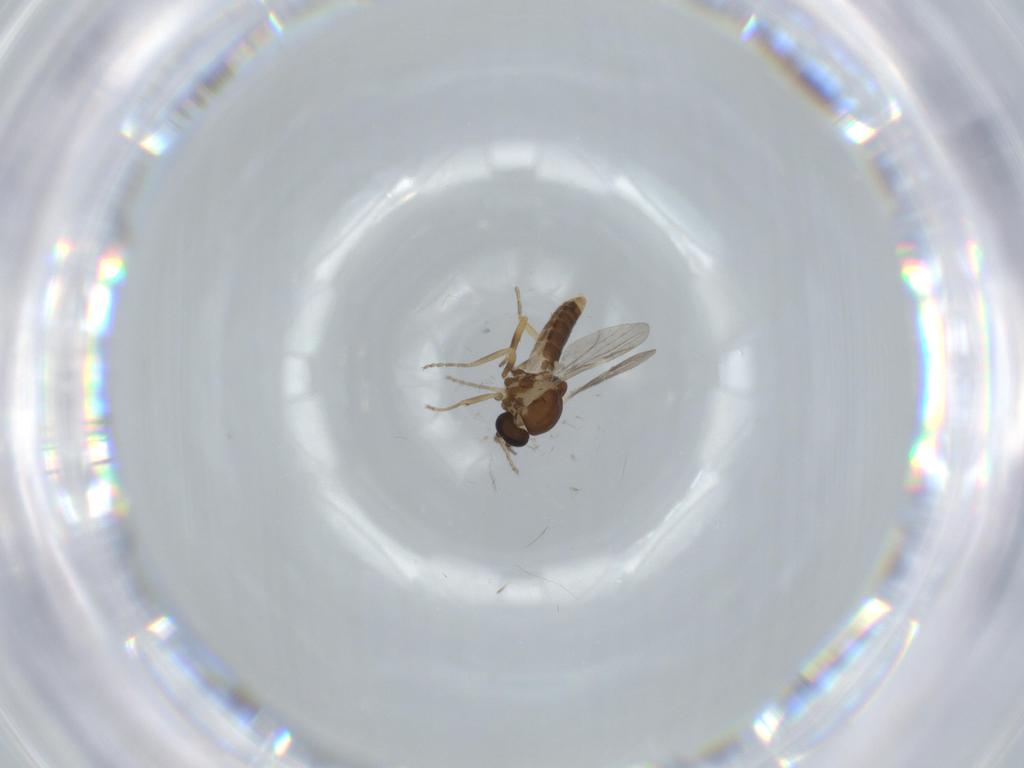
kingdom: Animalia
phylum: Arthropoda
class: Insecta
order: Diptera
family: Ceratopogonidae
